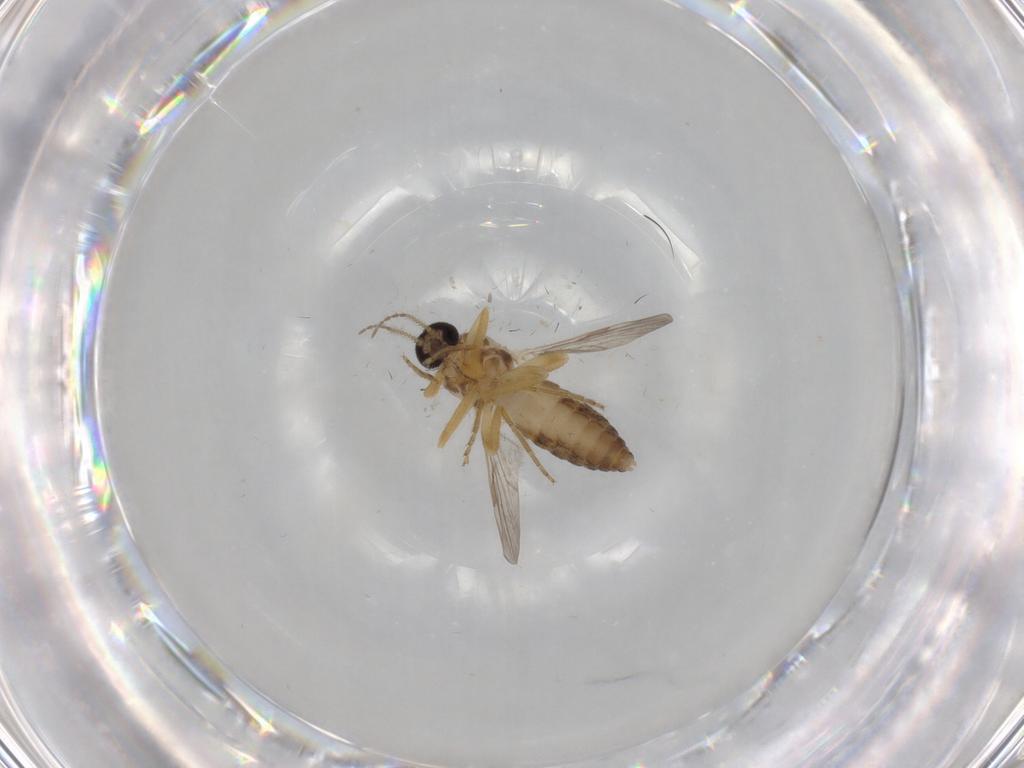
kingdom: Animalia
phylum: Arthropoda
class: Insecta
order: Diptera
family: Ceratopogonidae
